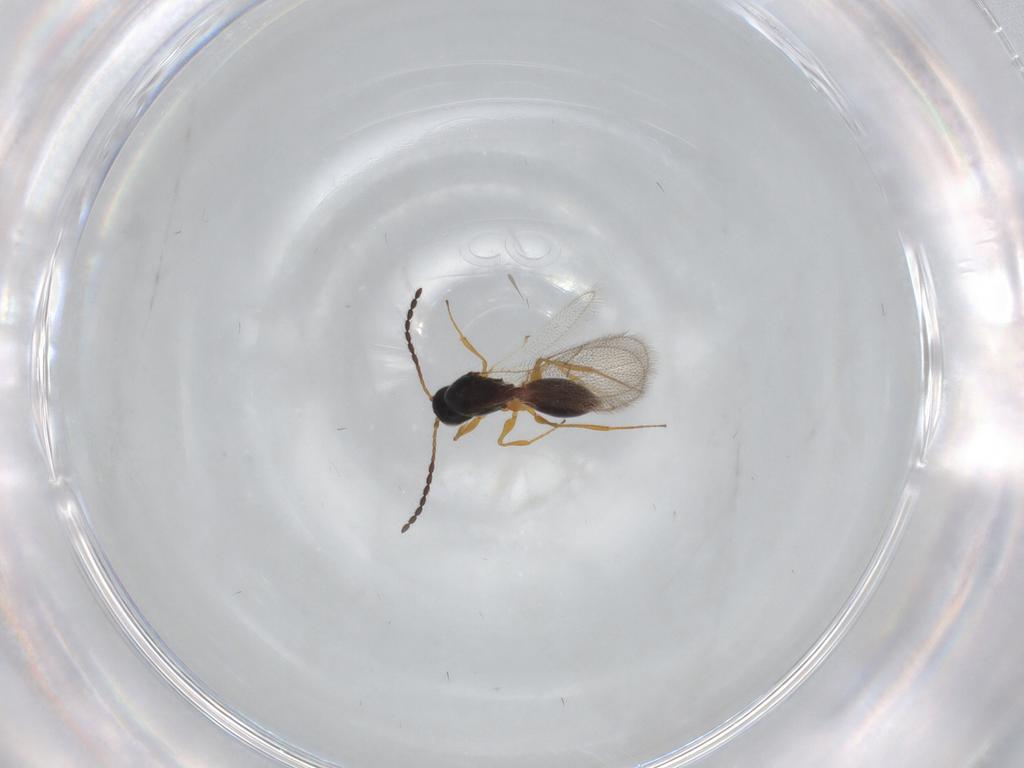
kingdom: Animalia
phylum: Arthropoda
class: Insecta
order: Hymenoptera
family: Figitidae
